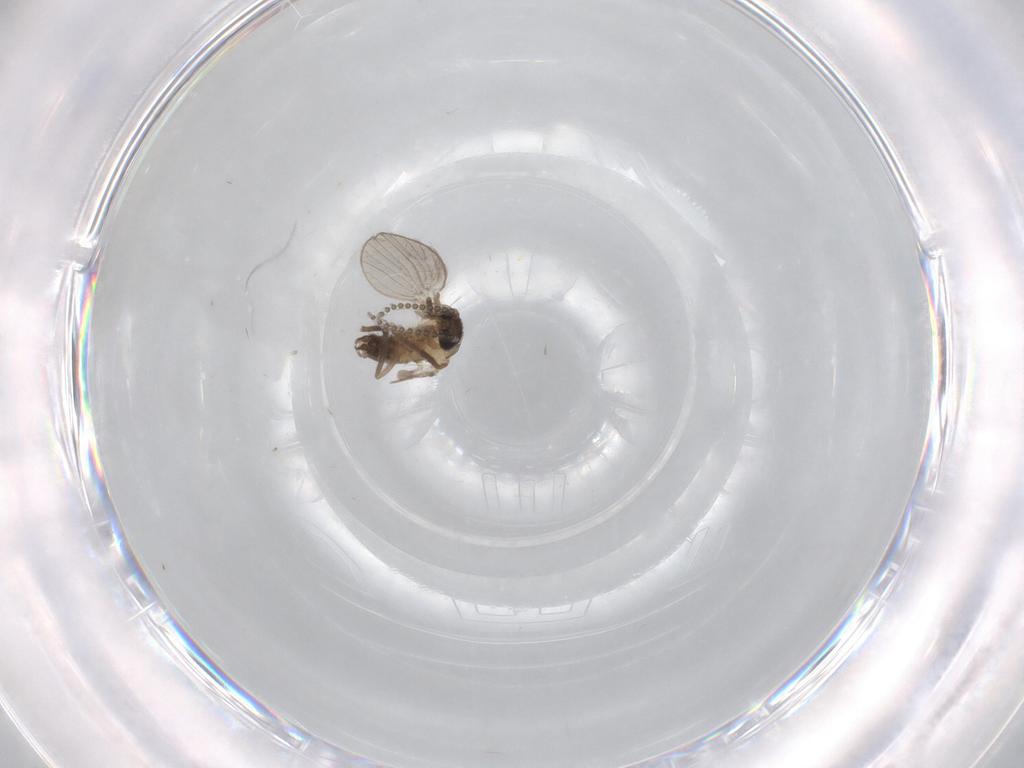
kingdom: Animalia
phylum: Arthropoda
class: Insecta
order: Diptera
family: Psychodidae
